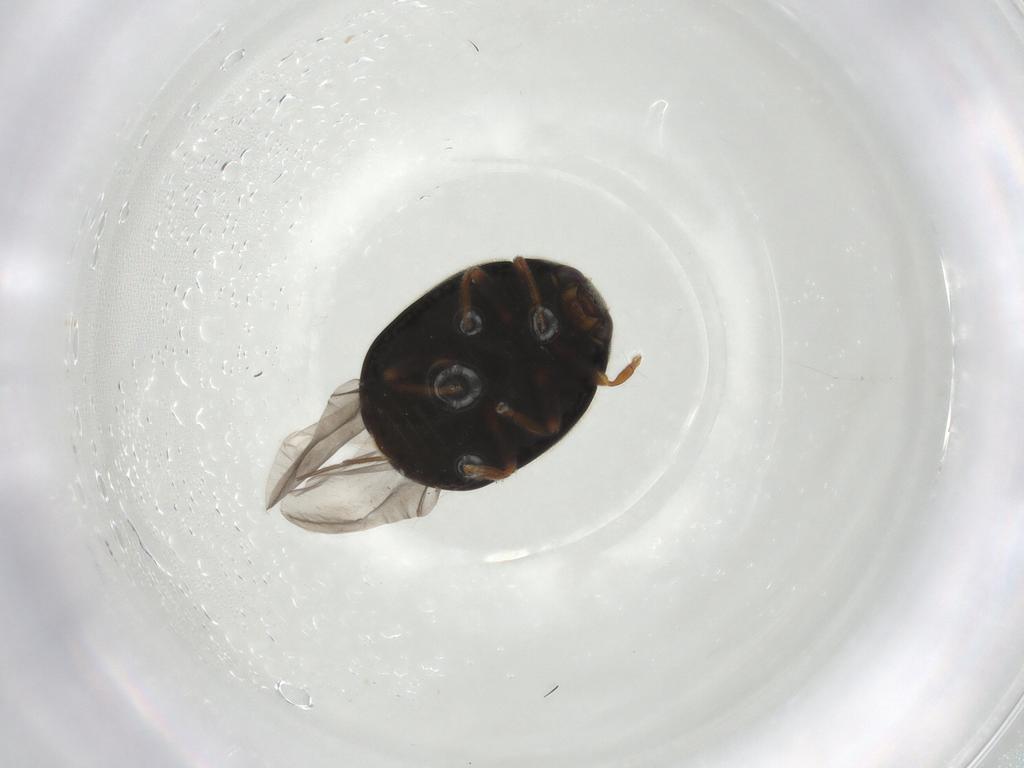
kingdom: Animalia
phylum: Arthropoda
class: Insecta
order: Coleoptera
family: Coccinellidae
